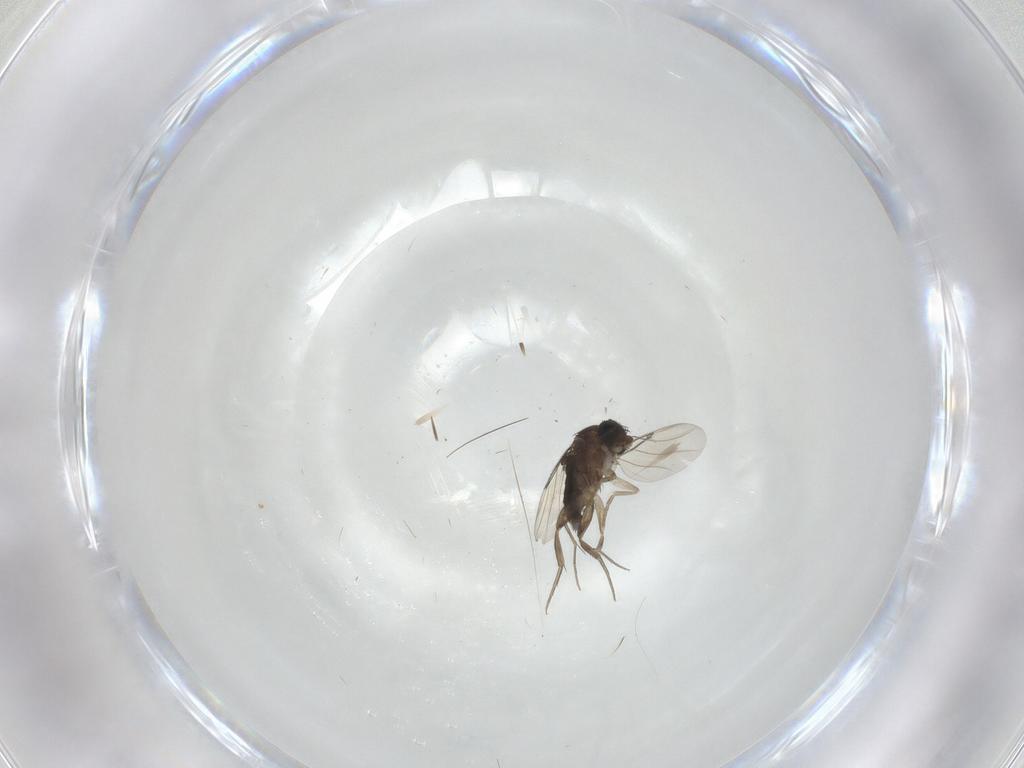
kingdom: Animalia
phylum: Arthropoda
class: Insecta
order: Diptera
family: Phoridae
